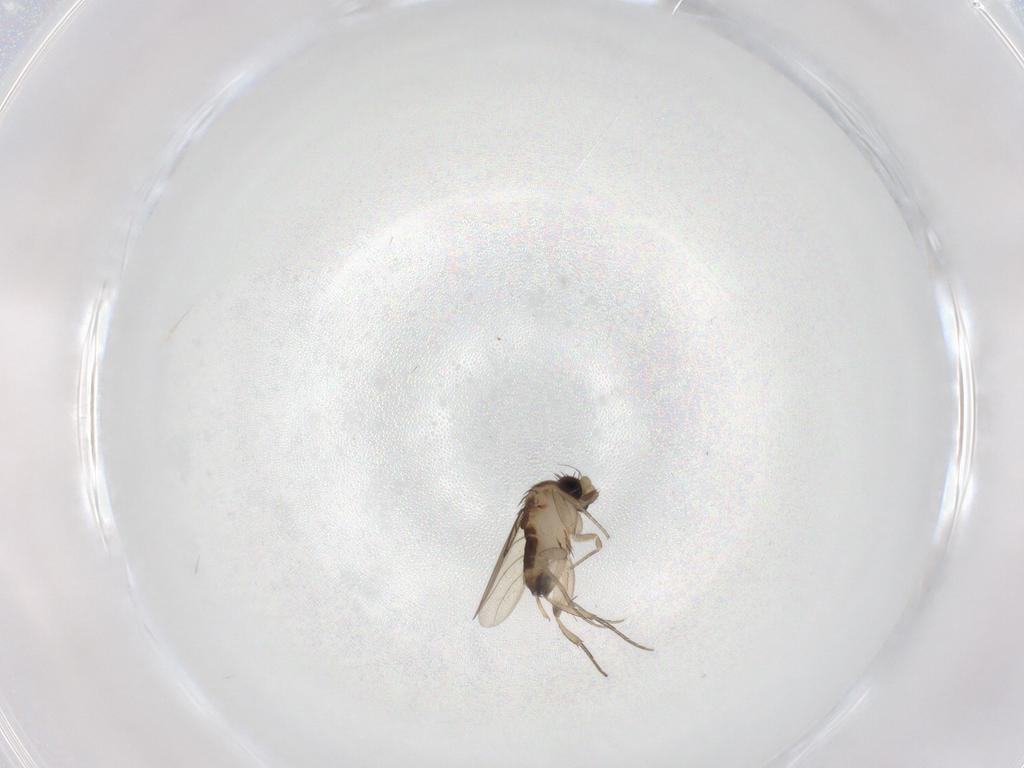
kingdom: Animalia
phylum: Arthropoda
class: Insecta
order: Diptera
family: Phoridae
